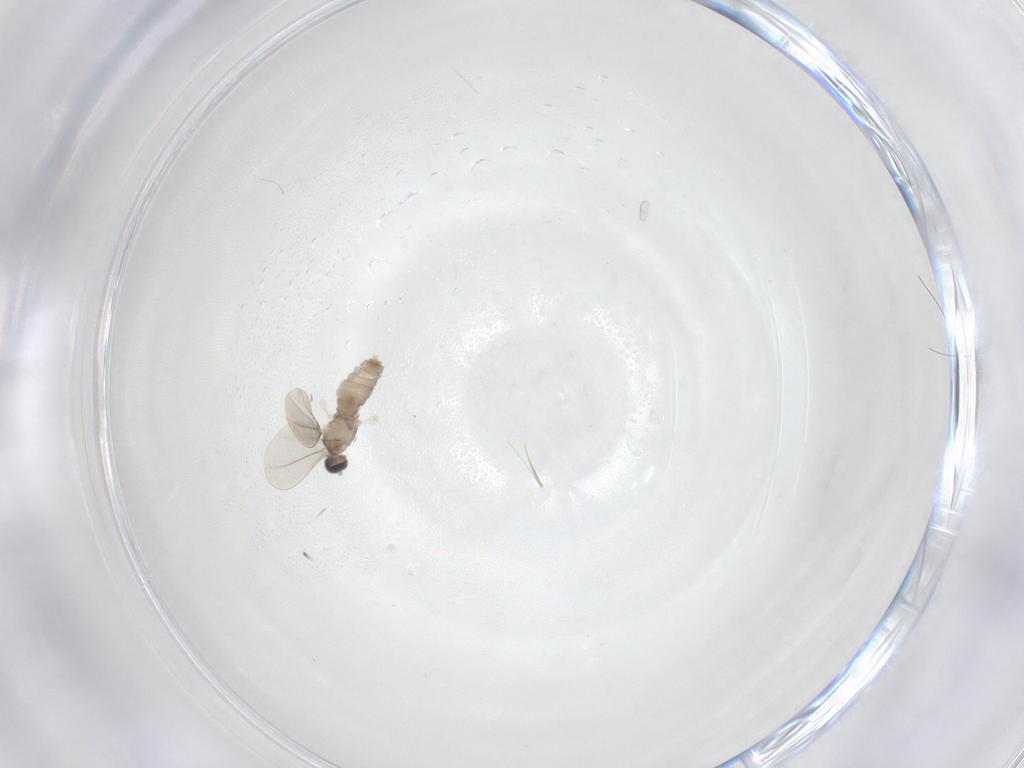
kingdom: Animalia
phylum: Arthropoda
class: Insecta
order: Diptera
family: Cecidomyiidae
